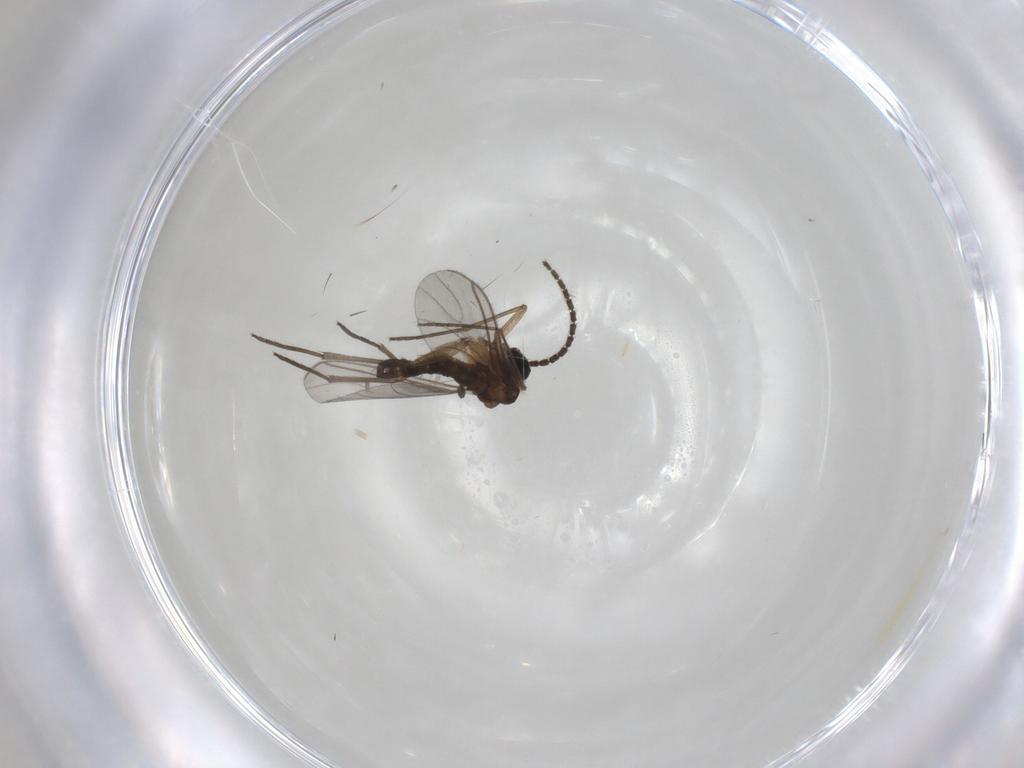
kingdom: Animalia
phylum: Arthropoda
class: Insecta
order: Diptera
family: Sciaridae
